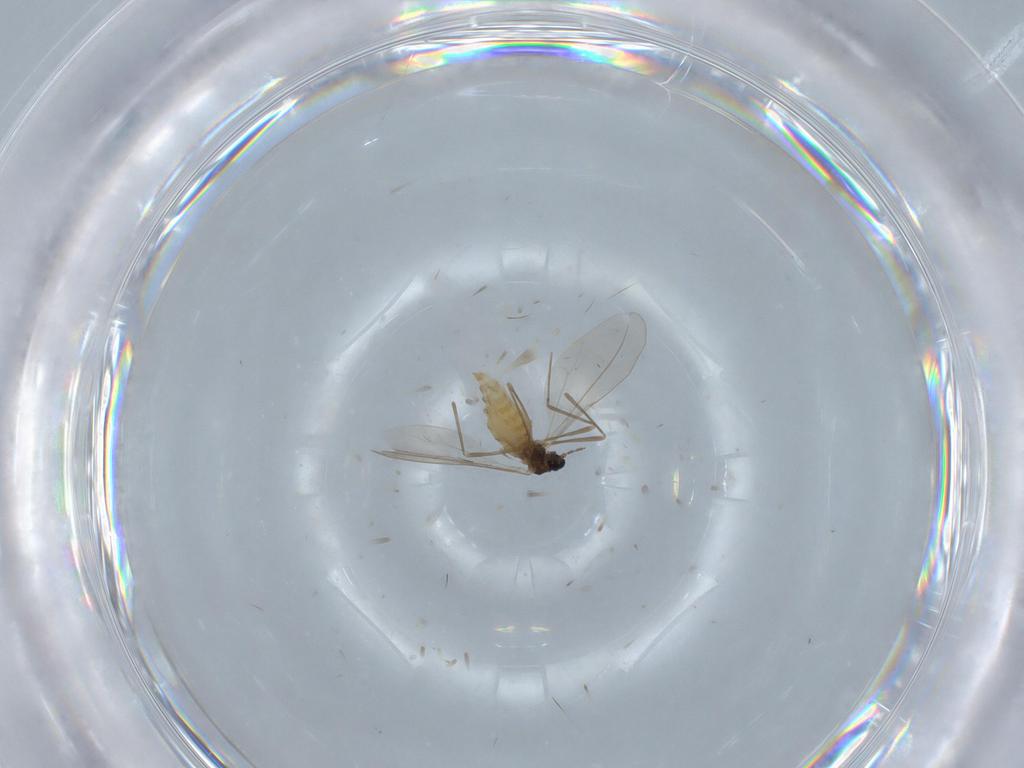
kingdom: Animalia
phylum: Arthropoda
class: Insecta
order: Diptera
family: Cecidomyiidae
